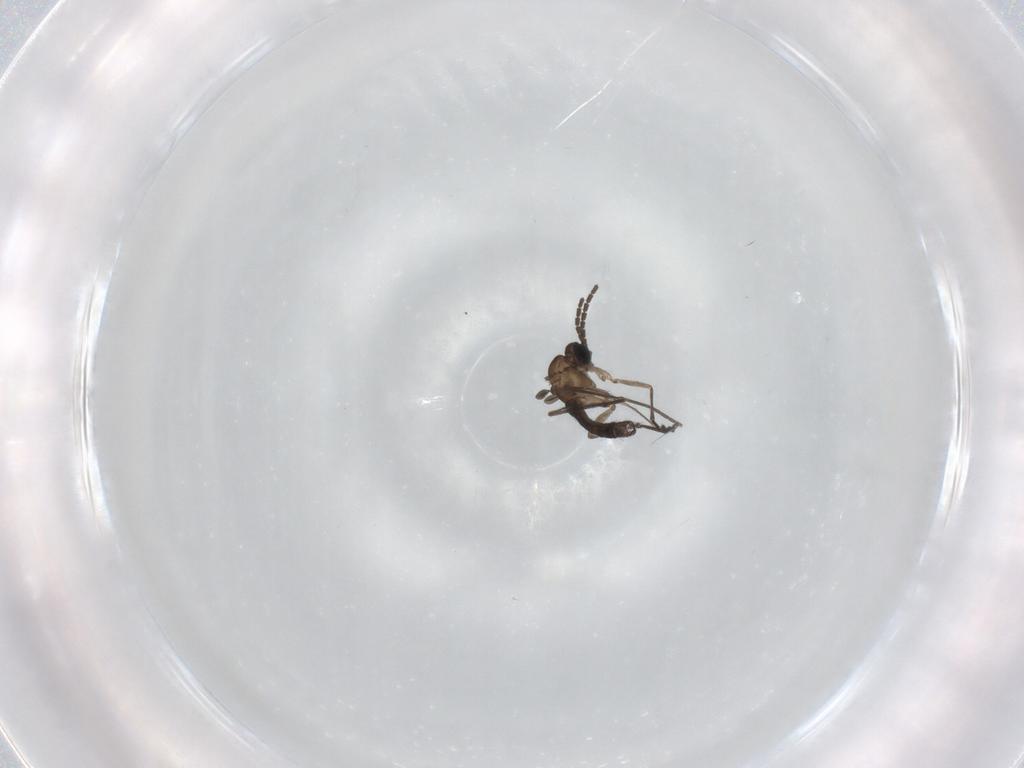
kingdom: Animalia
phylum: Arthropoda
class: Insecta
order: Diptera
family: Sciaridae
